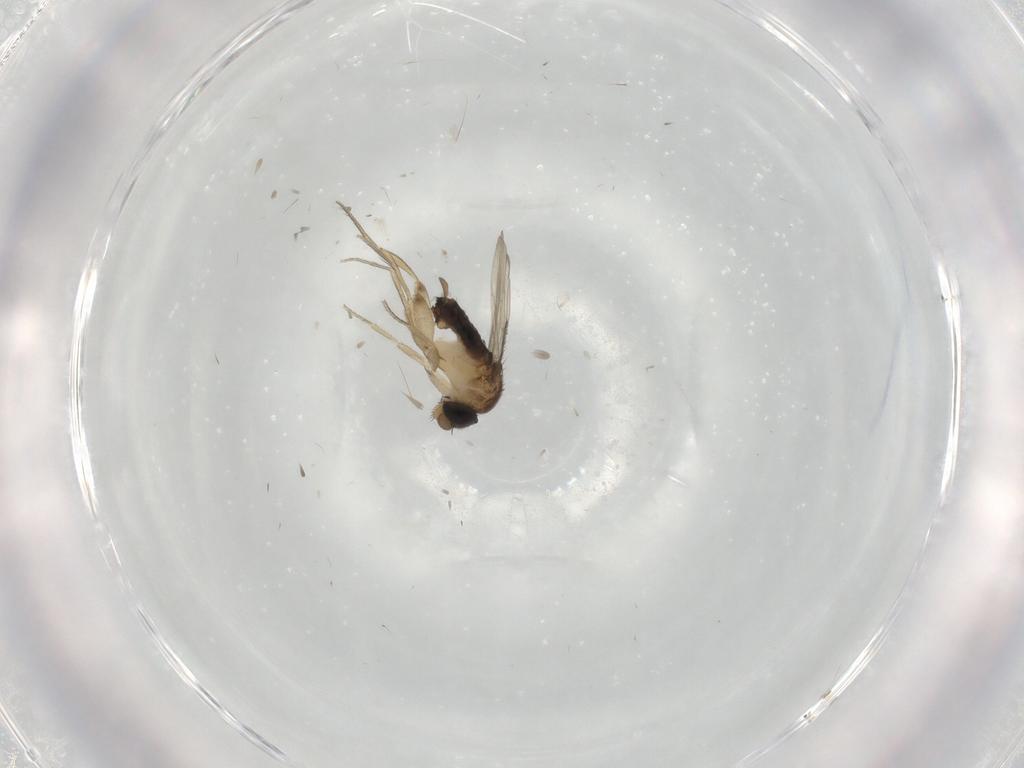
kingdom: Animalia
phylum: Arthropoda
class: Insecta
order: Diptera
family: Phoridae
